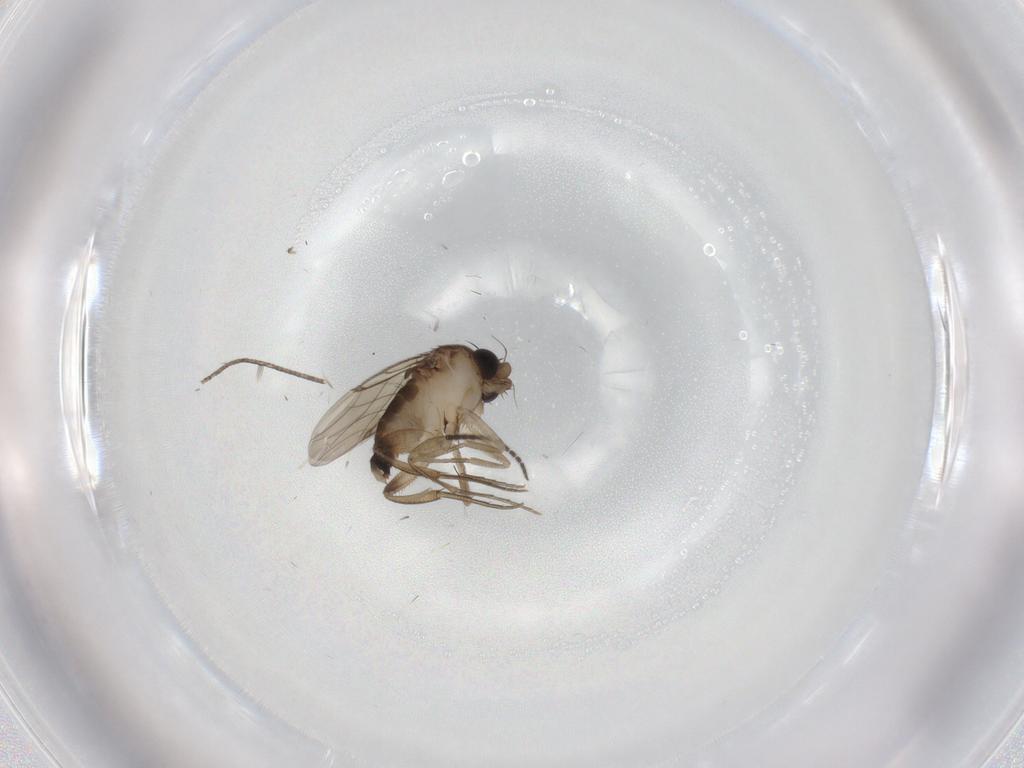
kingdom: Animalia
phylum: Arthropoda
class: Insecta
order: Diptera
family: Phoridae
